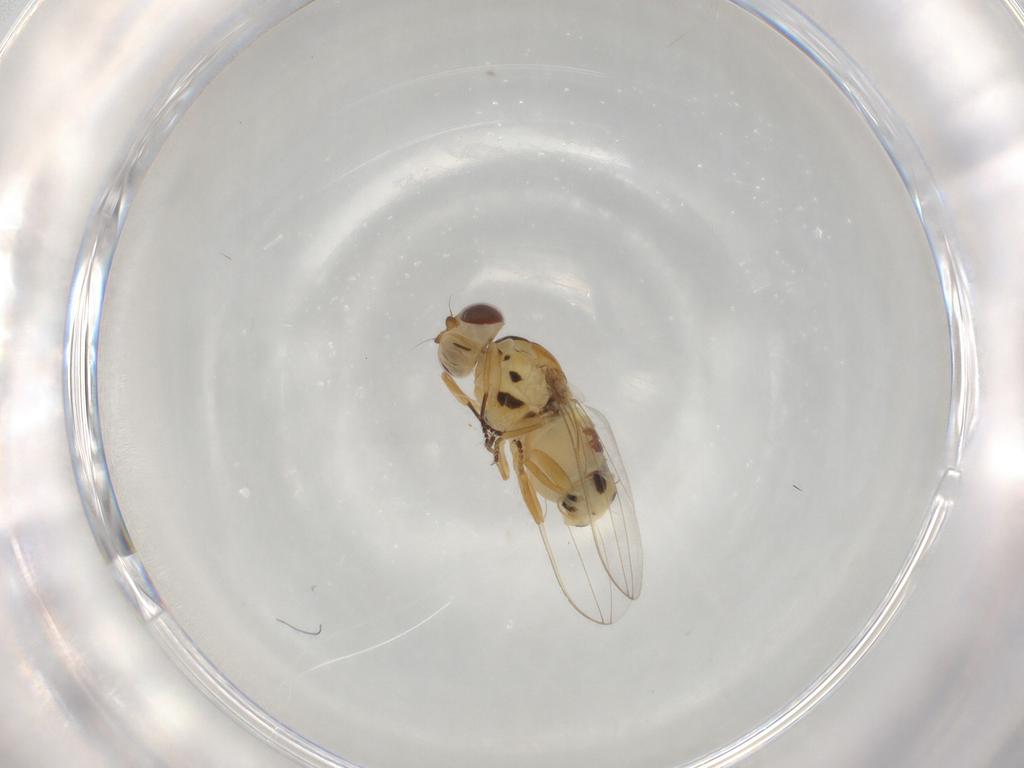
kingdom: Animalia
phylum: Arthropoda
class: Insecta
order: Diptera
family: Asteiidae
